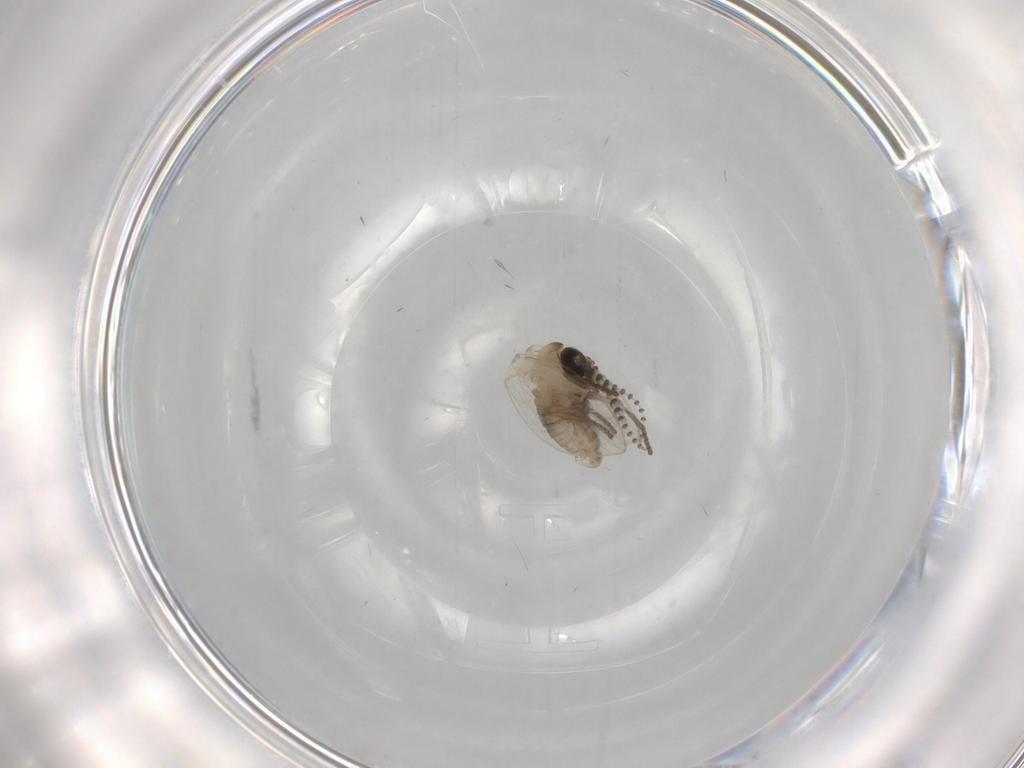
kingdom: Animalia
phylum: Arthropoda
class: Insecta
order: Diptera
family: Psychodidae
